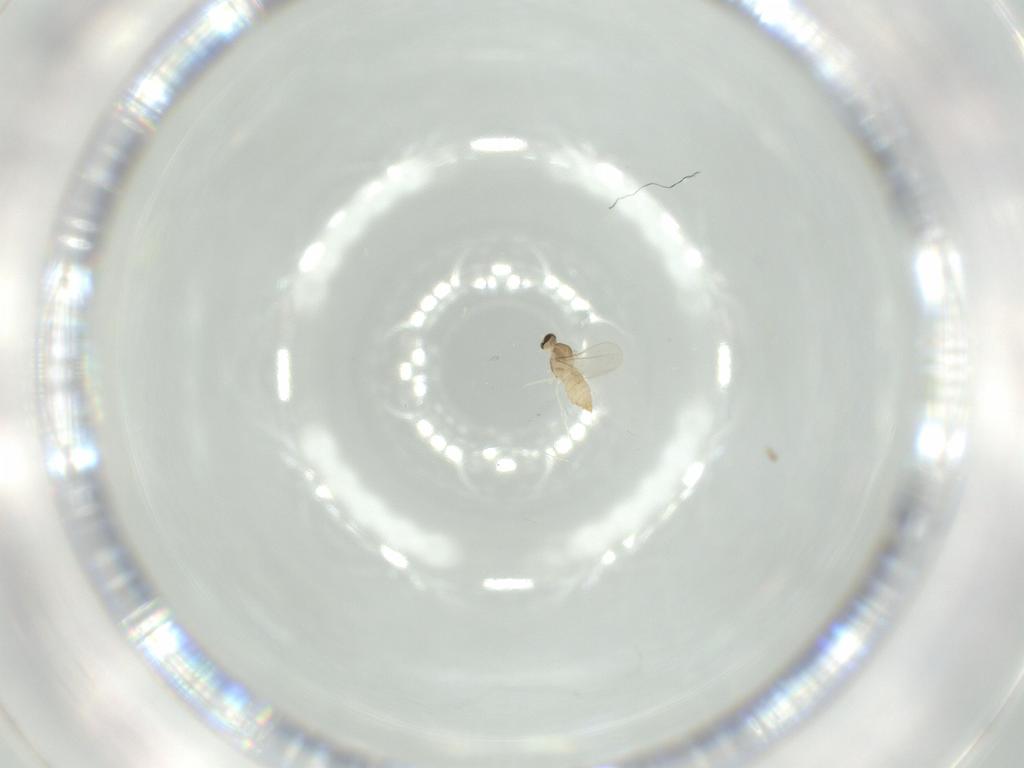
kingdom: Animalia
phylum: Arthropoda
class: Insecta
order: Diptera
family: Cecidomyiidae
